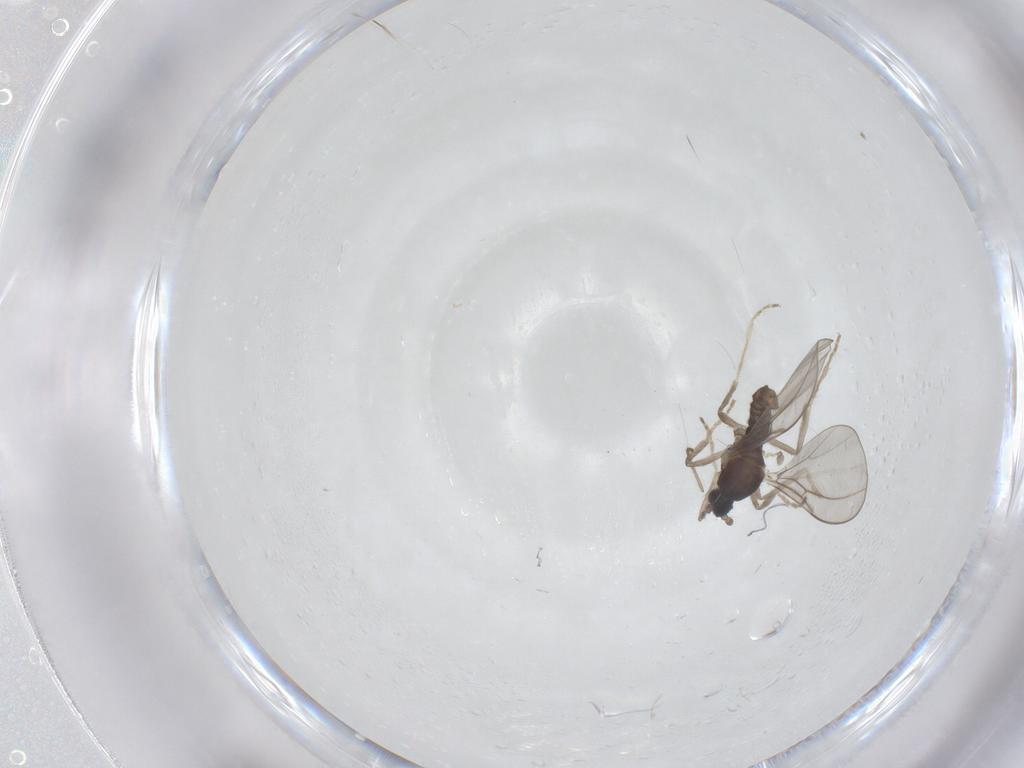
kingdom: Animalia
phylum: Arthropoda
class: Insecta
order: Diptera
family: Cecidomyiidae
